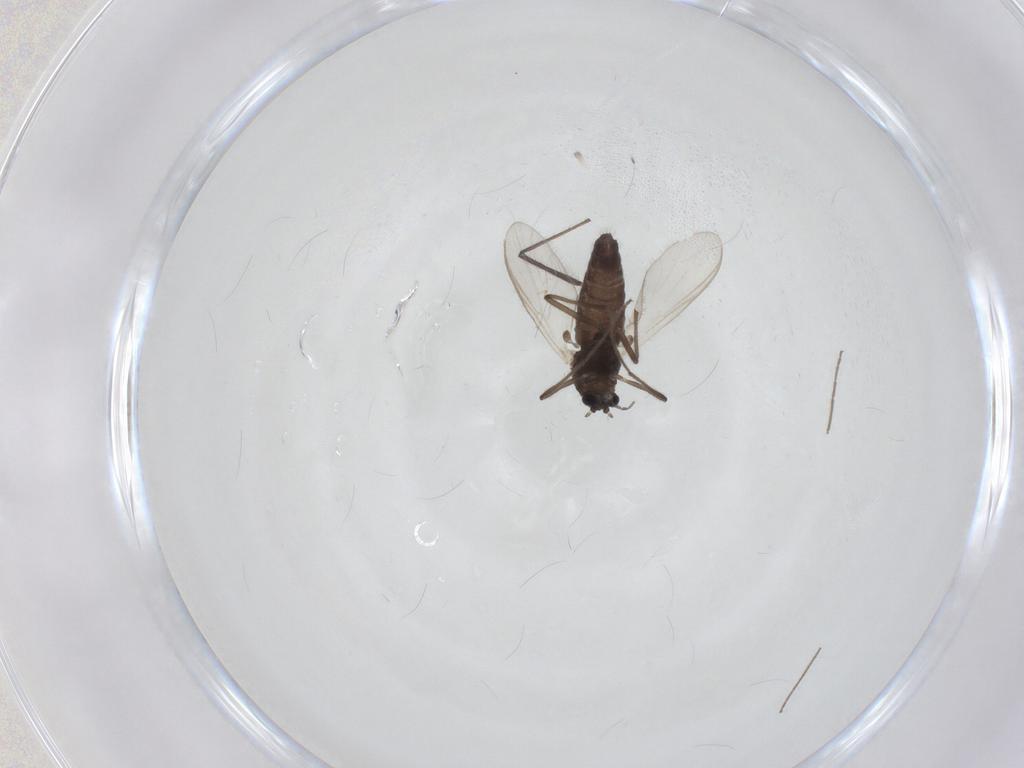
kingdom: Animalia
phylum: Arthropoda
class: Insecta
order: Diptera
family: Chironomidae
